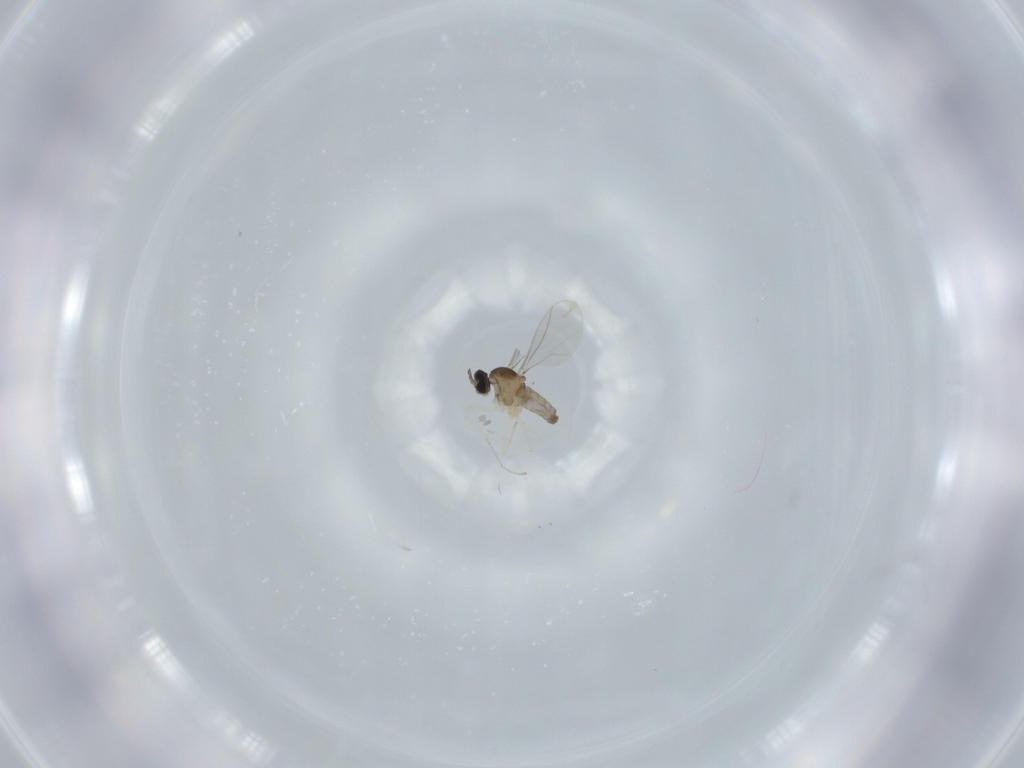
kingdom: Animalia
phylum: Arthropoda
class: Insecta
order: Diptera
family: Cecidomyiidae
